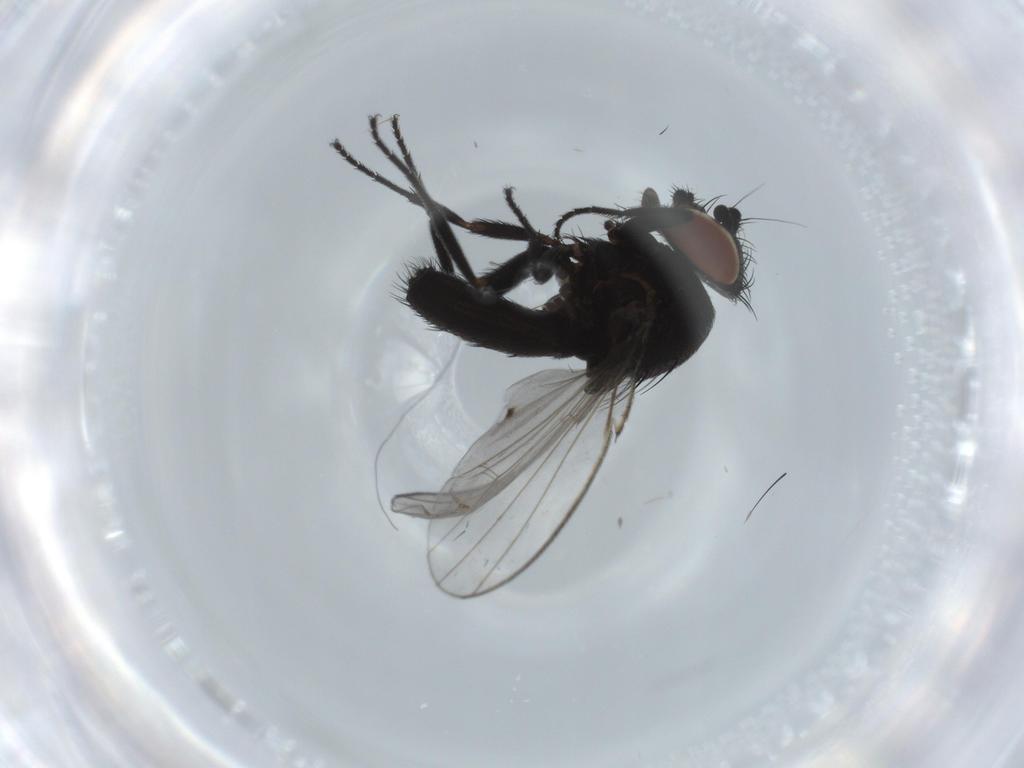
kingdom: Animalia
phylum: Arthropoda
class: Insecta
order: Diptera
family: Milichiidae
